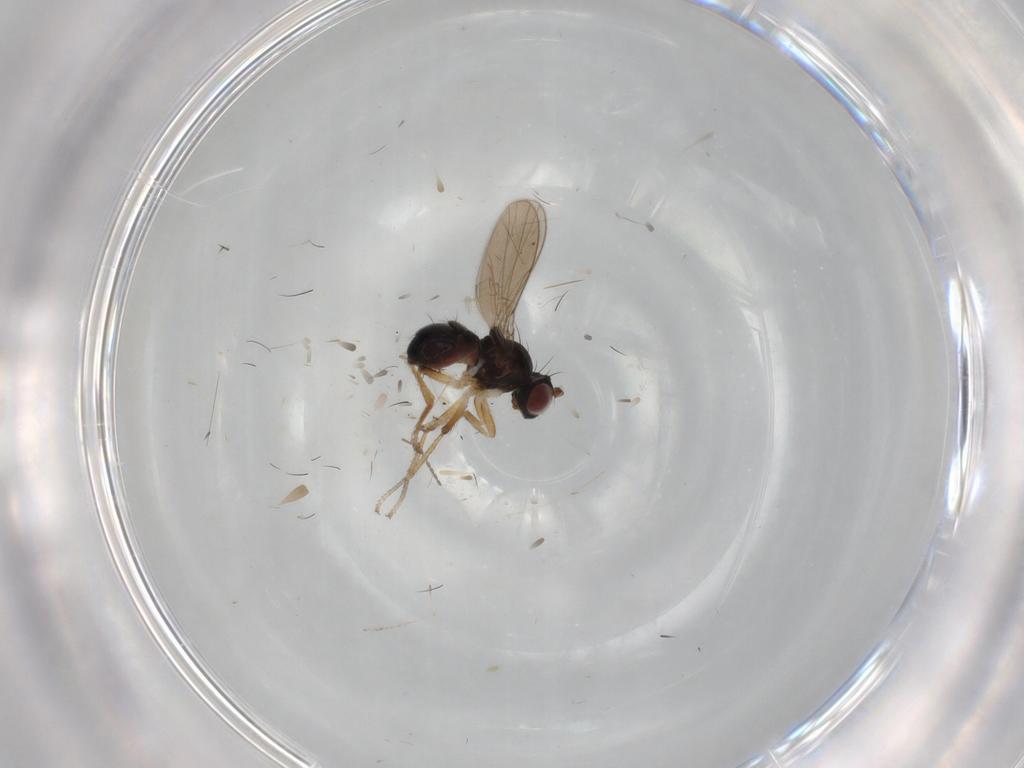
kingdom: Animalia
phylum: Arthropoda
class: Insecta
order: Diptera
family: Ephydridae
